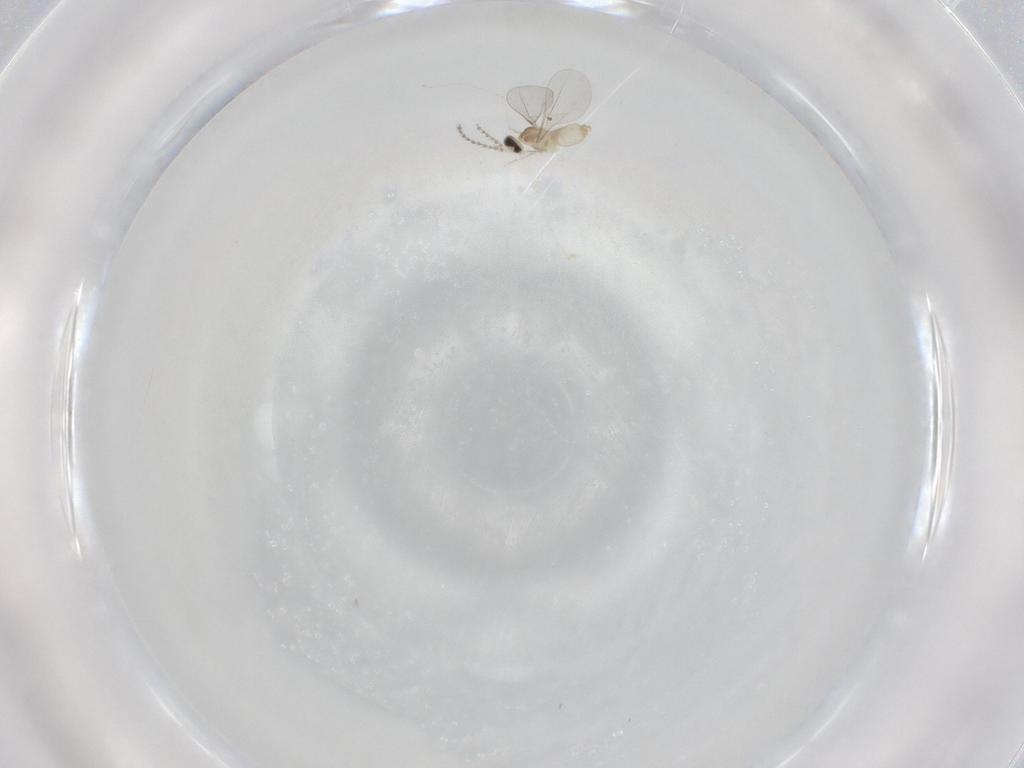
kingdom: Animalia
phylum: Arthropoda
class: Insecta
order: Diptera
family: Cecidomyiidae
